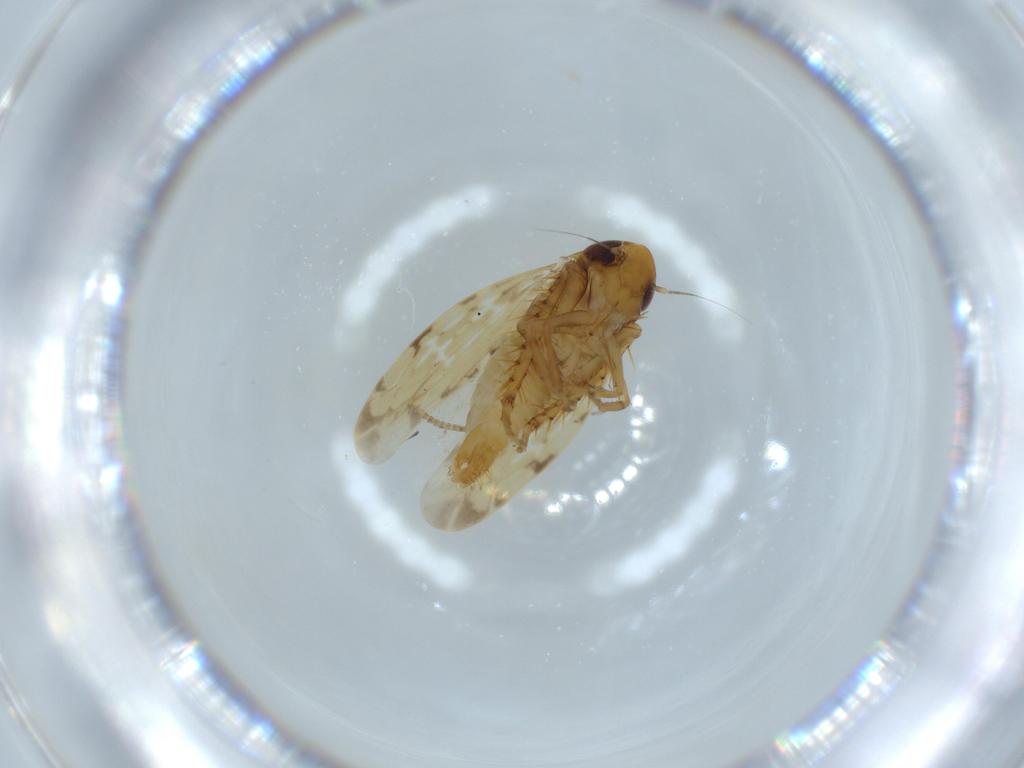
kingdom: Animalia
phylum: Arthropoda
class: Insecta
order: Hemiptera
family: Cicadellidae
